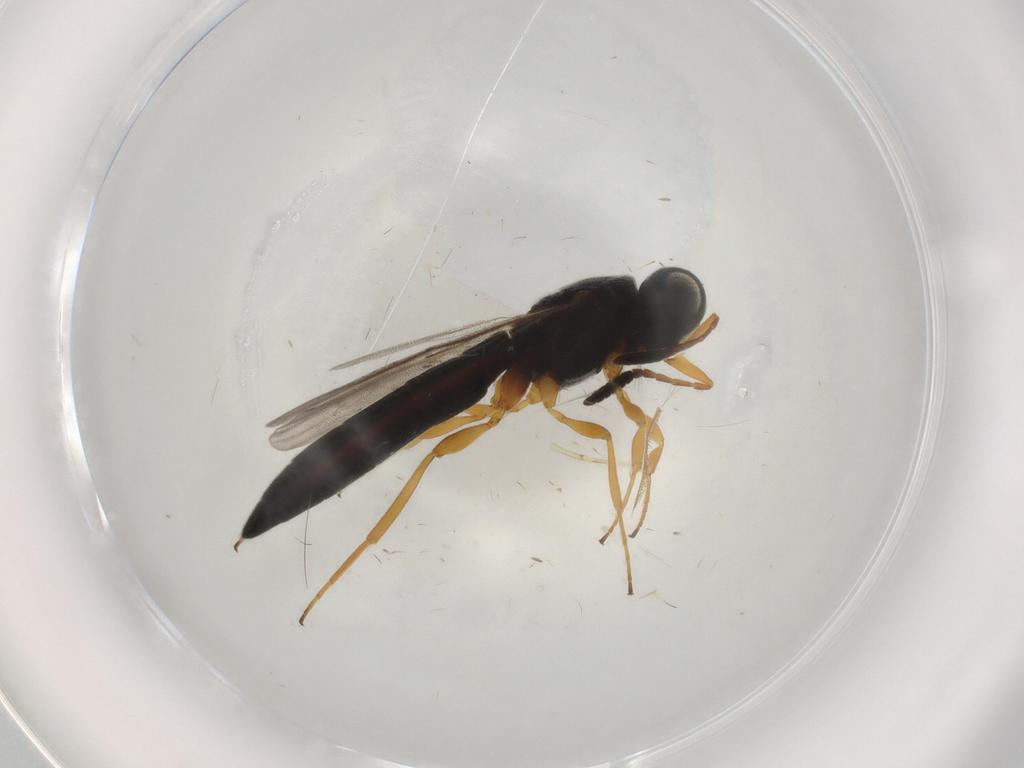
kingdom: Animalia
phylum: Arthropoda
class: Insecta
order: Hymenoptera
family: Scelionidae
